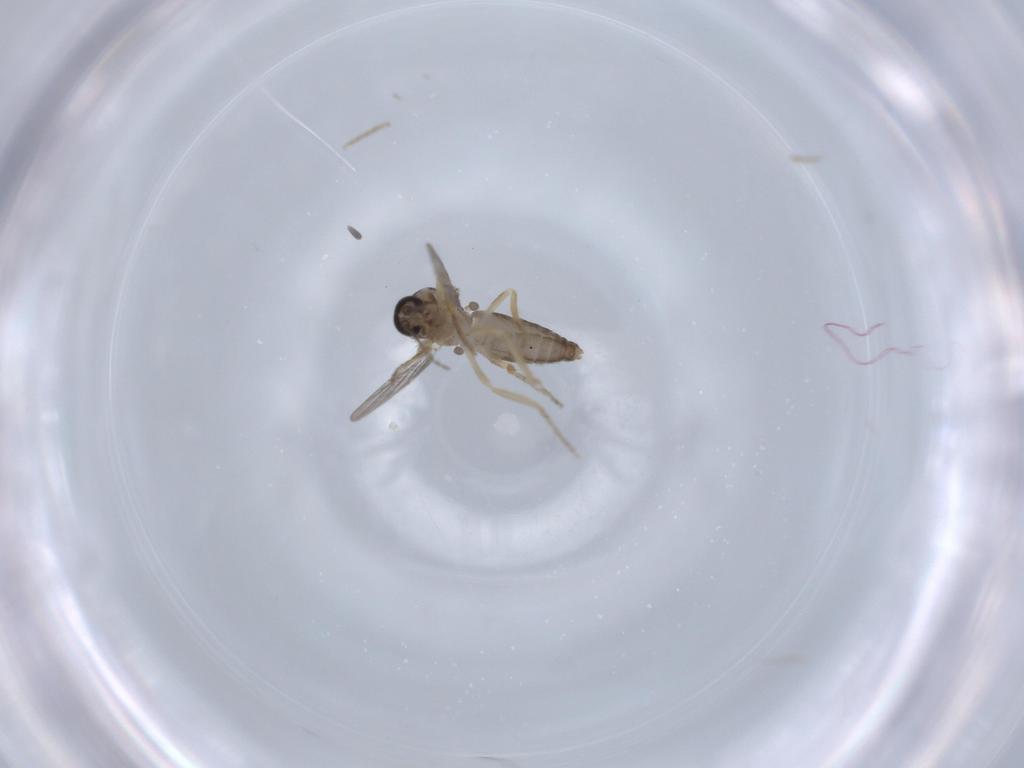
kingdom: Animalia
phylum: Arthropoda
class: Insecta
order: Diptera
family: Ceratopogonidae
